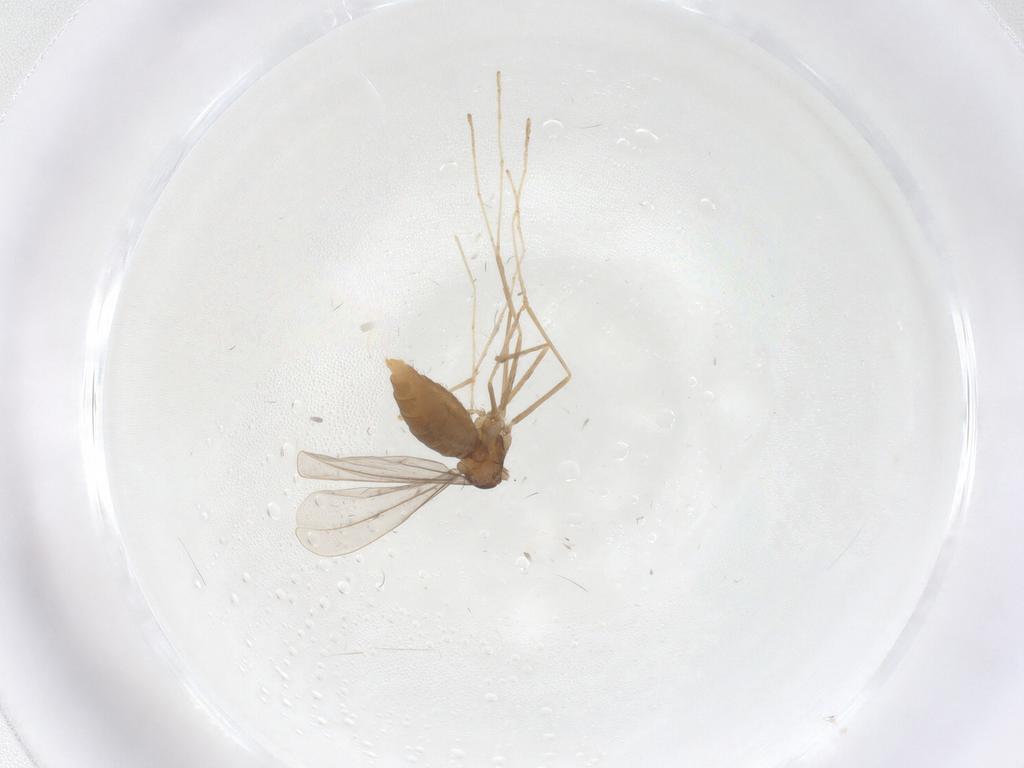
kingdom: Animalia
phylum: Arthropoda
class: Insecta
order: Diptera
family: Cecidomyiidae
